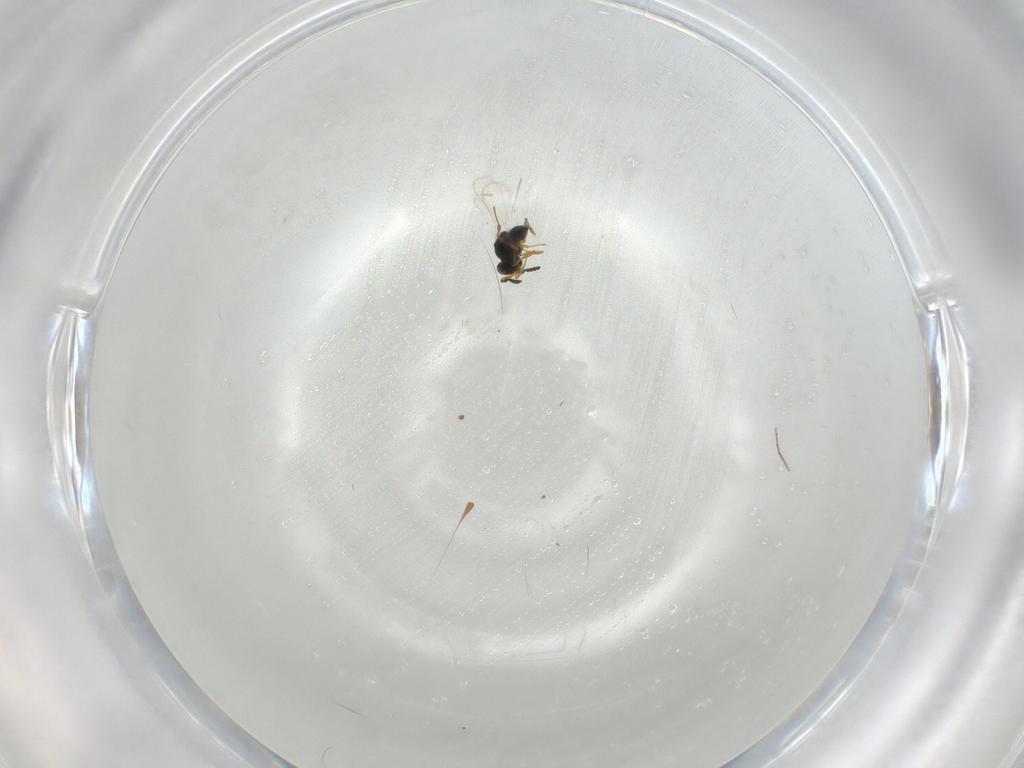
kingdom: Animalia
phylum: Arthropoda
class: Insecta
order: Hymenoptera
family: Platygastridae
